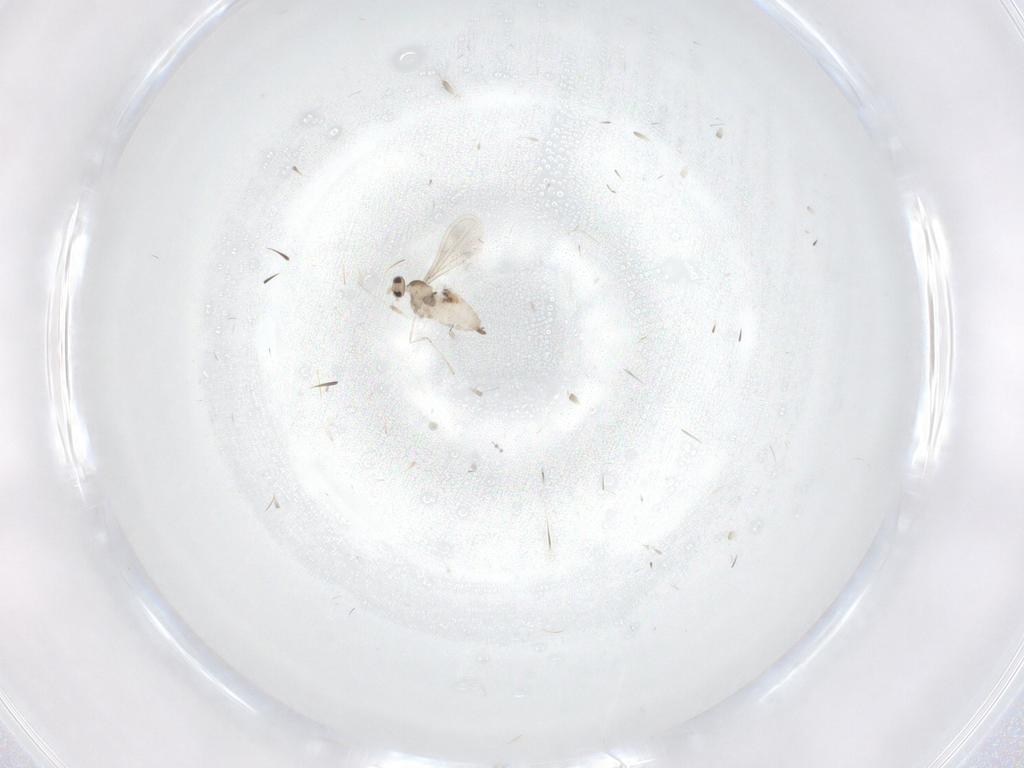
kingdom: Animalia
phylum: Arthropoda
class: Insecta
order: Diptera
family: Cecidomyiidae
